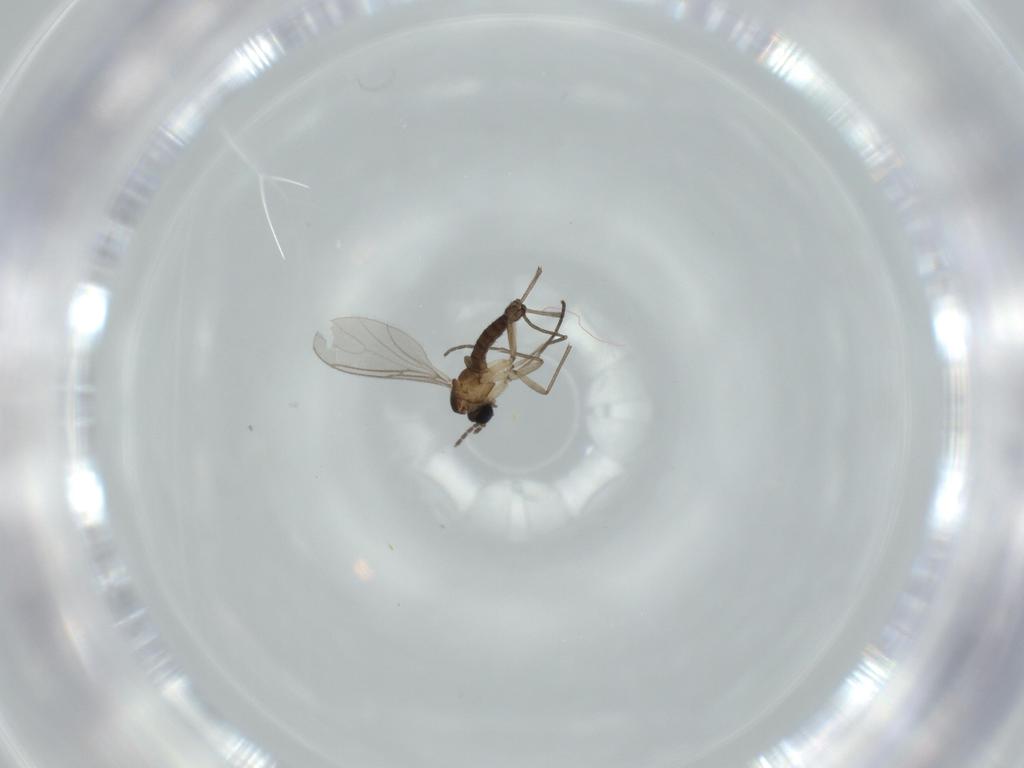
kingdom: Animalia
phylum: Arthropoda
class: Insecta
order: Diptera
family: Sciaridae
